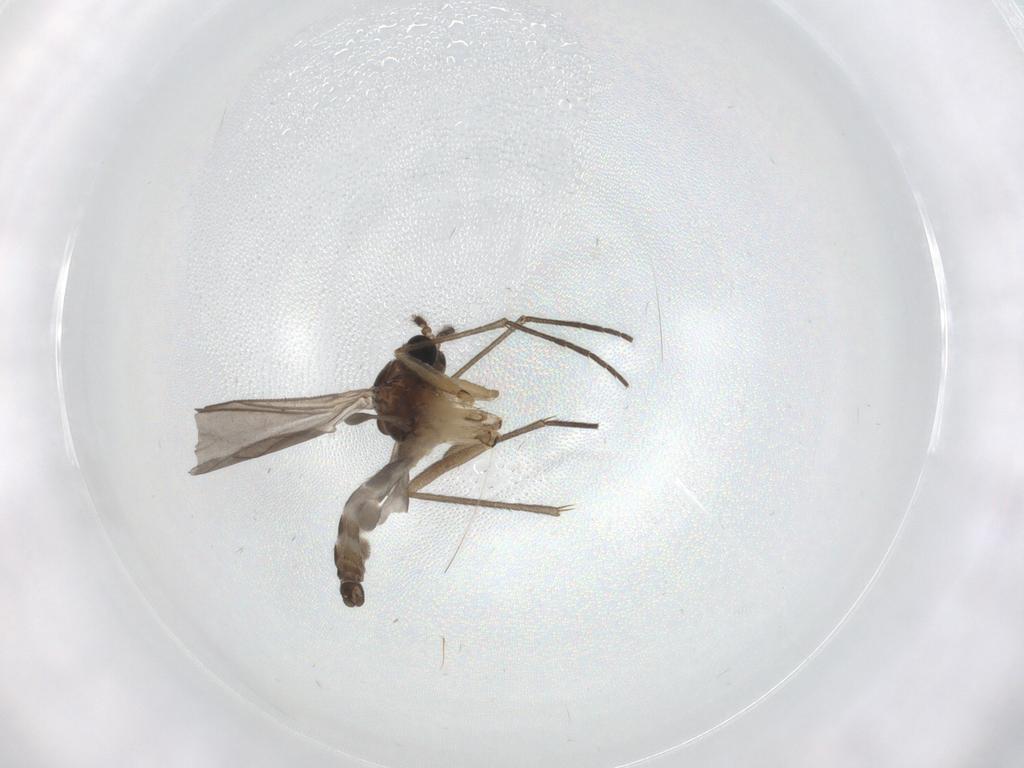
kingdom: Animalia
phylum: Arthropoda
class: Insecta
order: Diptera
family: Sciaridae
